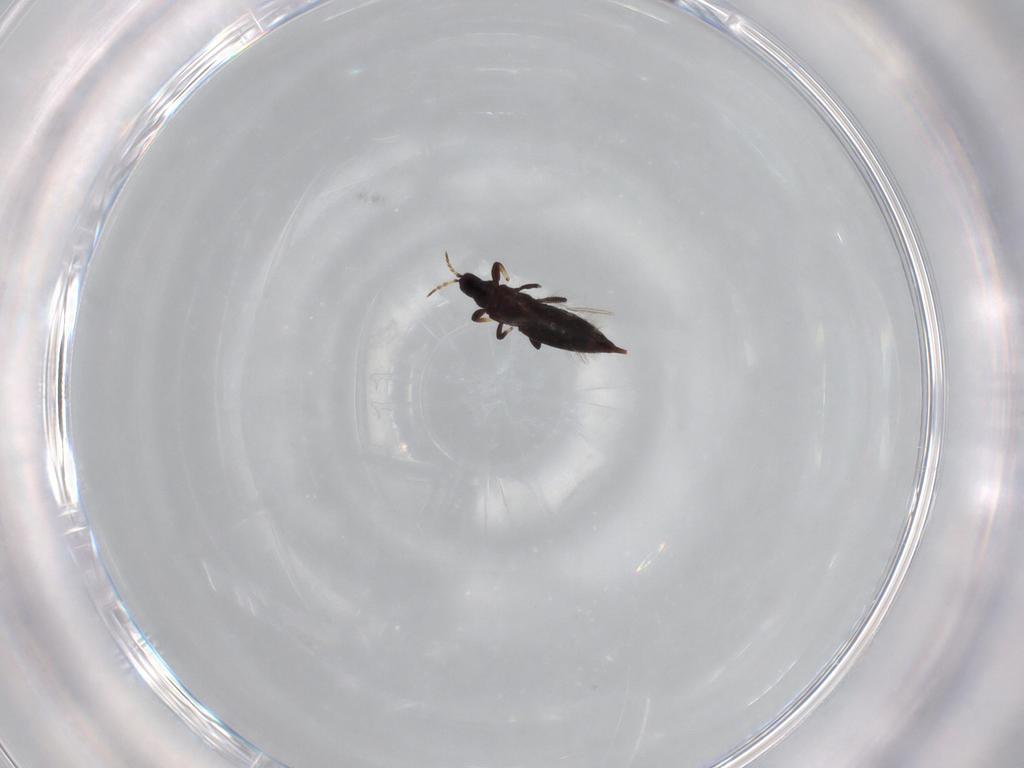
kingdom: Animalia
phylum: Arthropoda
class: Insecta
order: Thysanoptera
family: Phlaeothripidae
